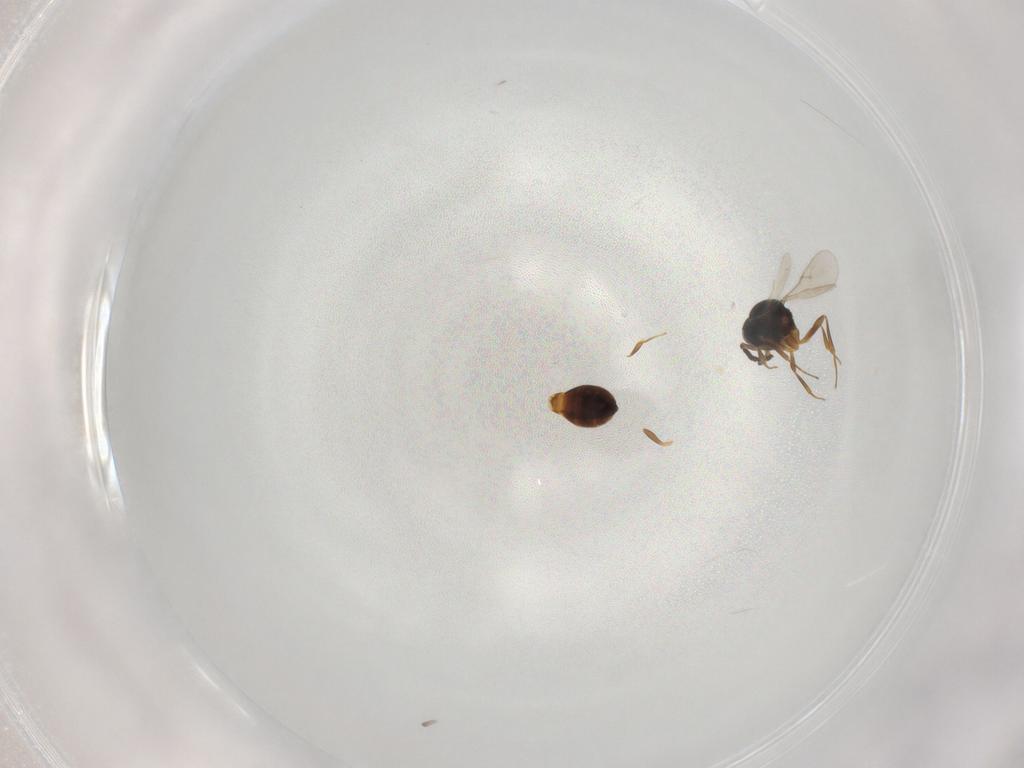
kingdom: Animalia
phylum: Arthropoda
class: Insecta
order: Hymenoptera
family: Scelionidae
